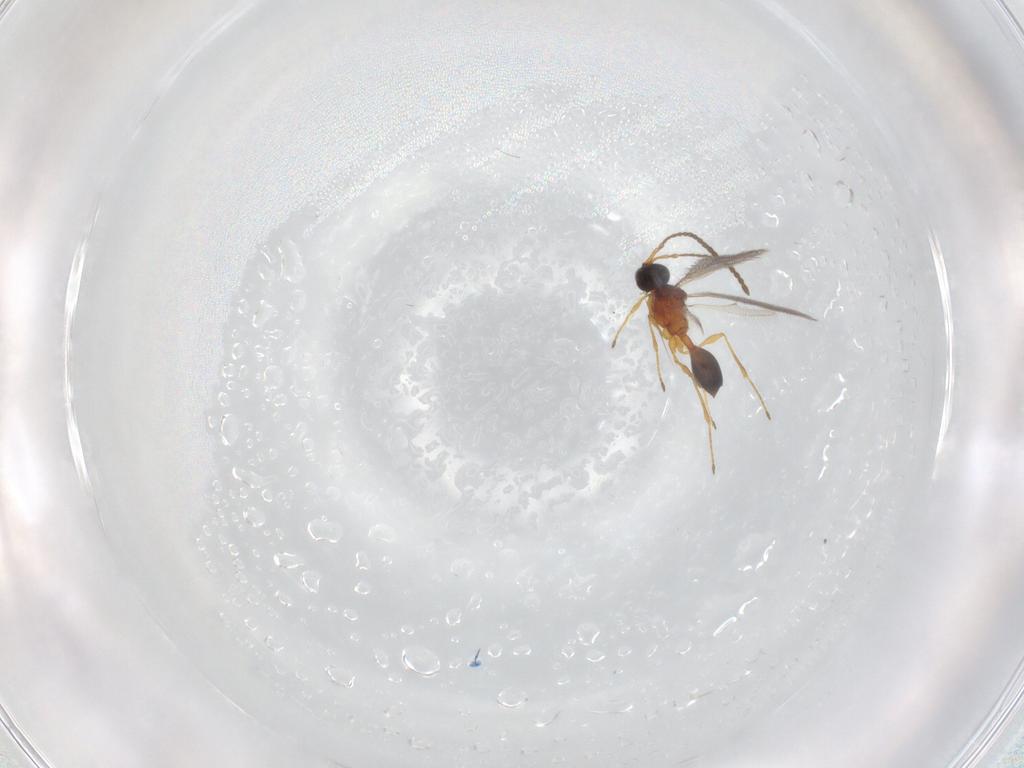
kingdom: Animalia
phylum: Arthropoda
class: Insecta
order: Hymenoptera
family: Diapriidae
